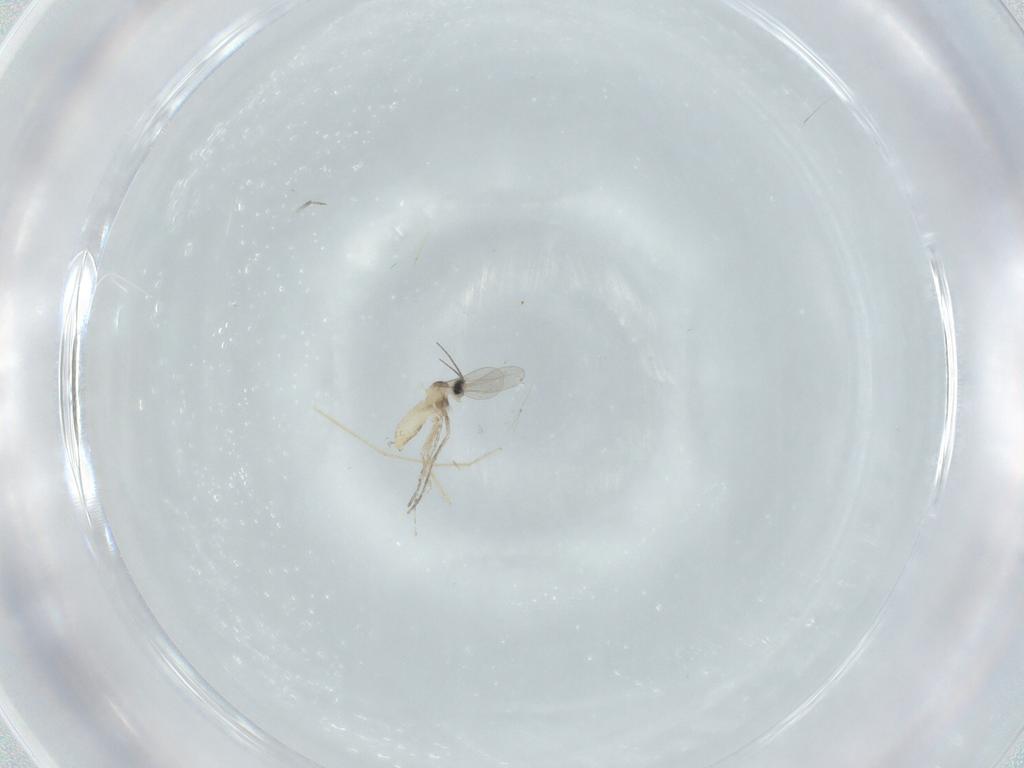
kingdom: Animalia
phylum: Arthropoda
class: Insecta
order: Diptera
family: Cecidomyiidae
